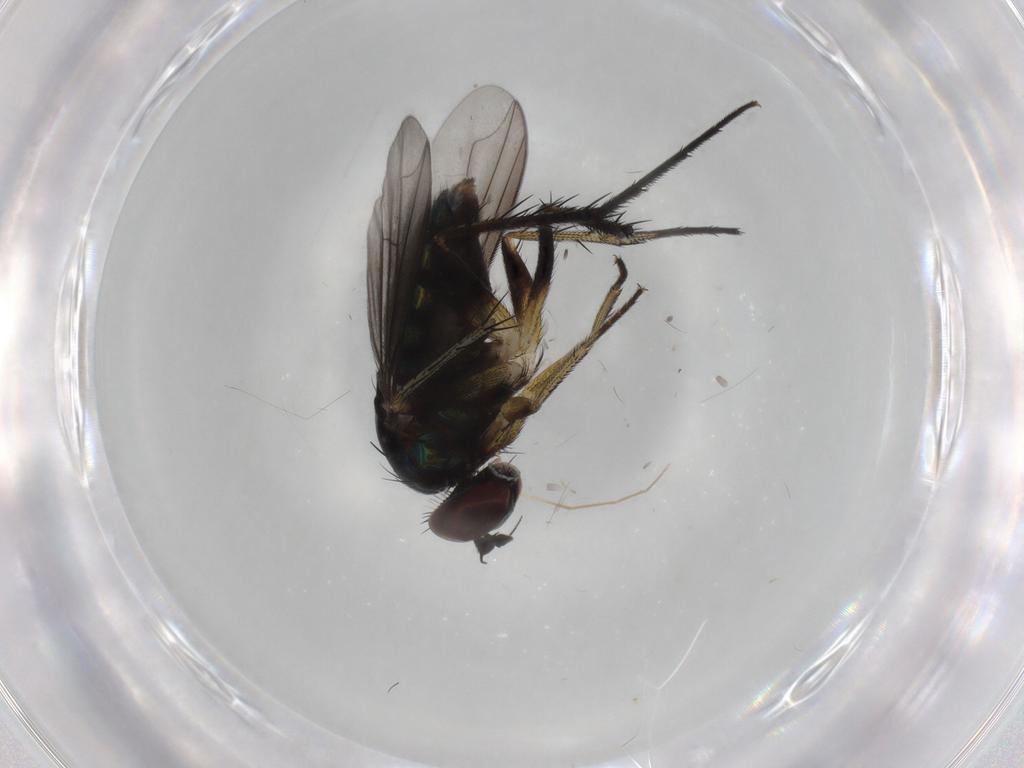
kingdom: Animalia
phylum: Arthropoda
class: Insecta
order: Diptera
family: Dolichopodidae
